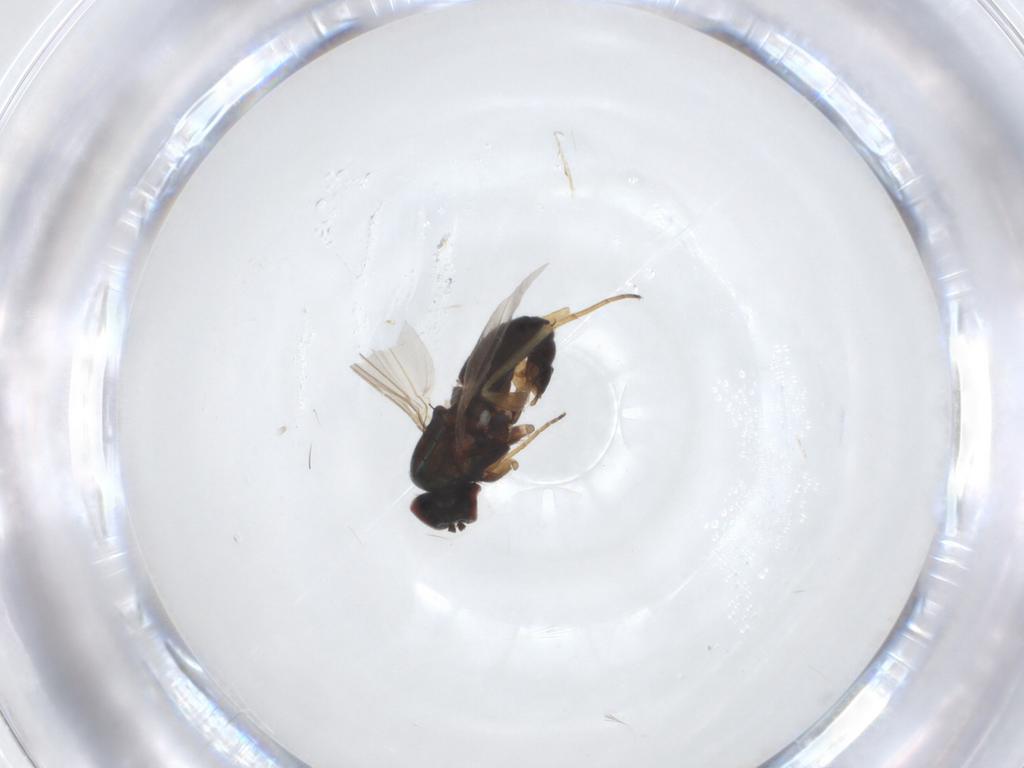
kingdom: Animalia
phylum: Arthropoda
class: Insecta
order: Diptera
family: Dolichopodidae
